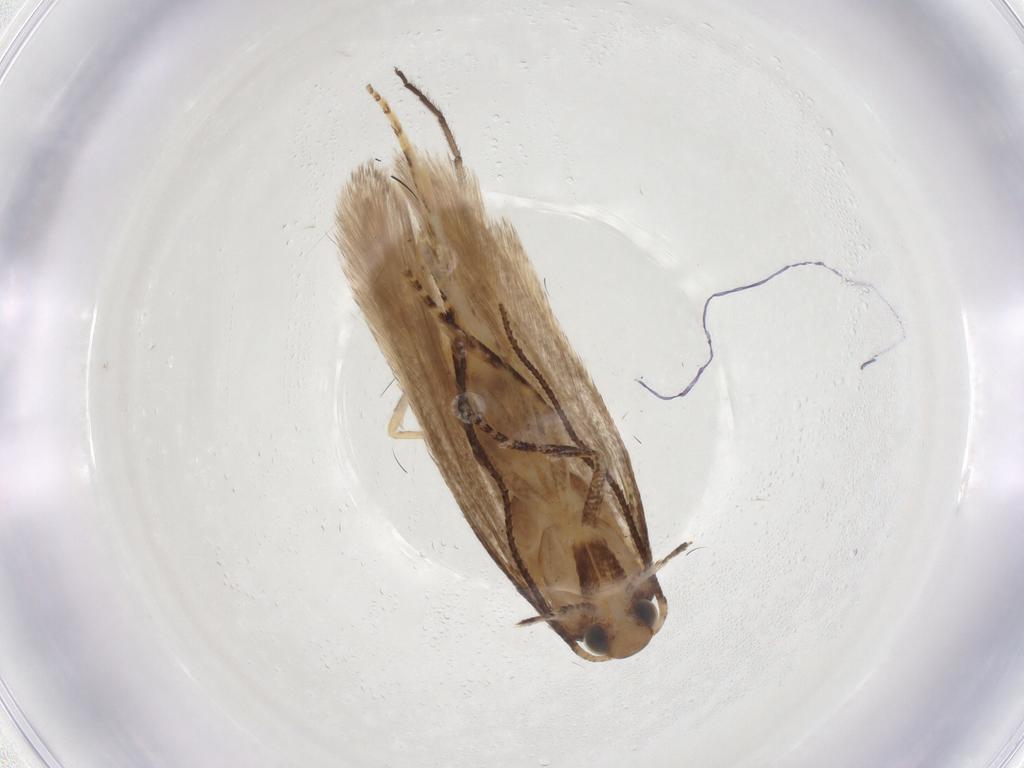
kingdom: Animalia
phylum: Arthropoda
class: Insecta
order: Lepidoptera
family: Gelechiidae
